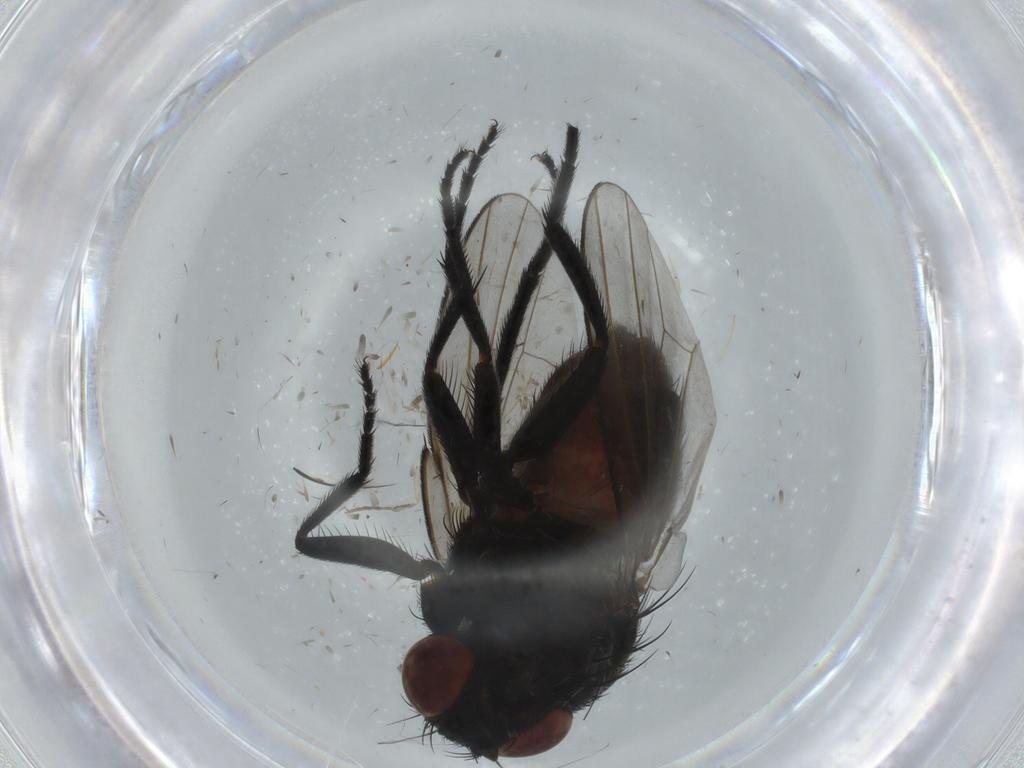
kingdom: Animalia
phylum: Arthropoda
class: Insecta
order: Diptera
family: Milichiidae
